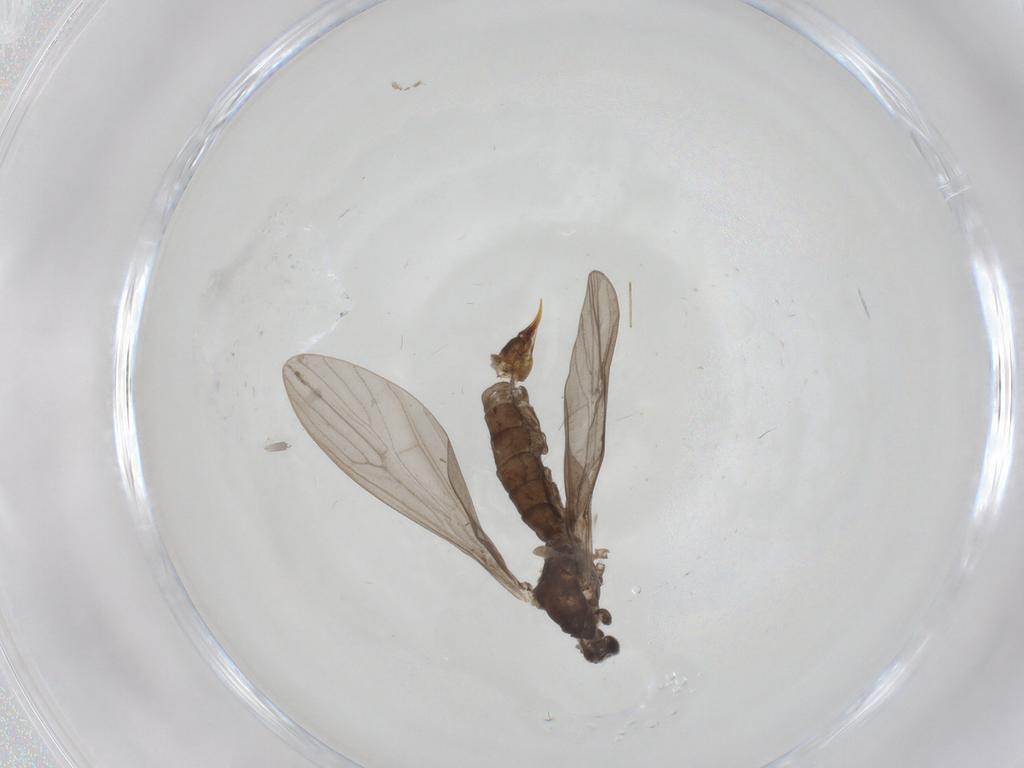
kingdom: Animalia
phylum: Arthropoda
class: Insecta
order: Diptera
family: Limoniidae
